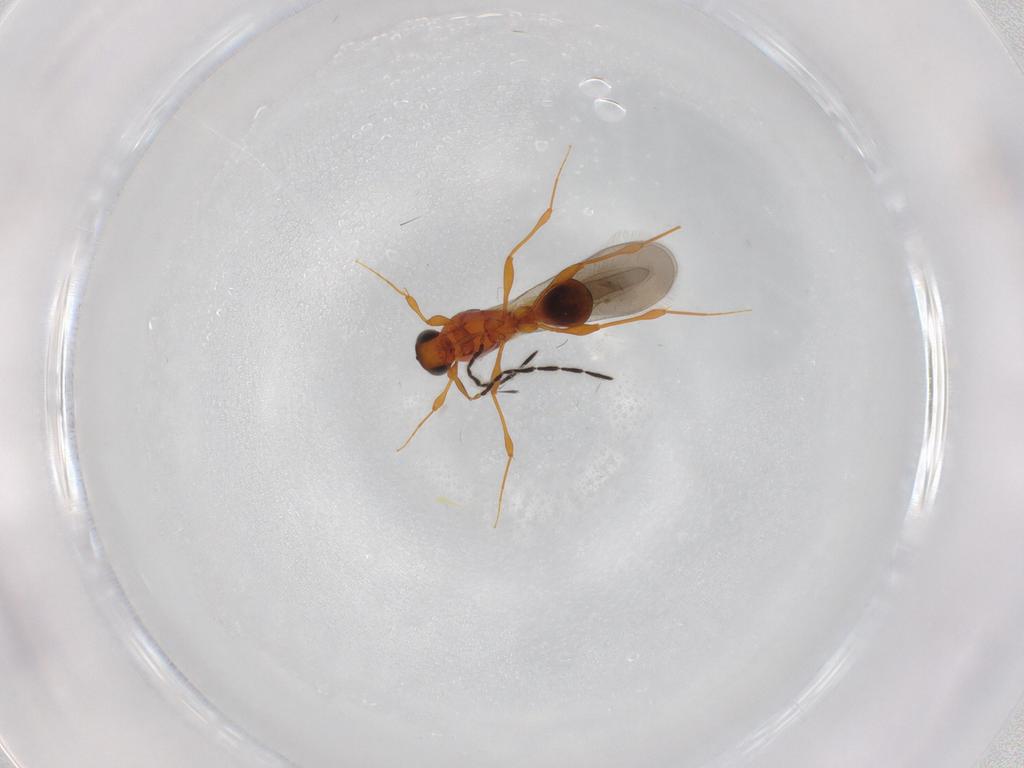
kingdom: Animalia
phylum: Arthropoda
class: Insecta
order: Hymenoptera
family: Platygastridae
